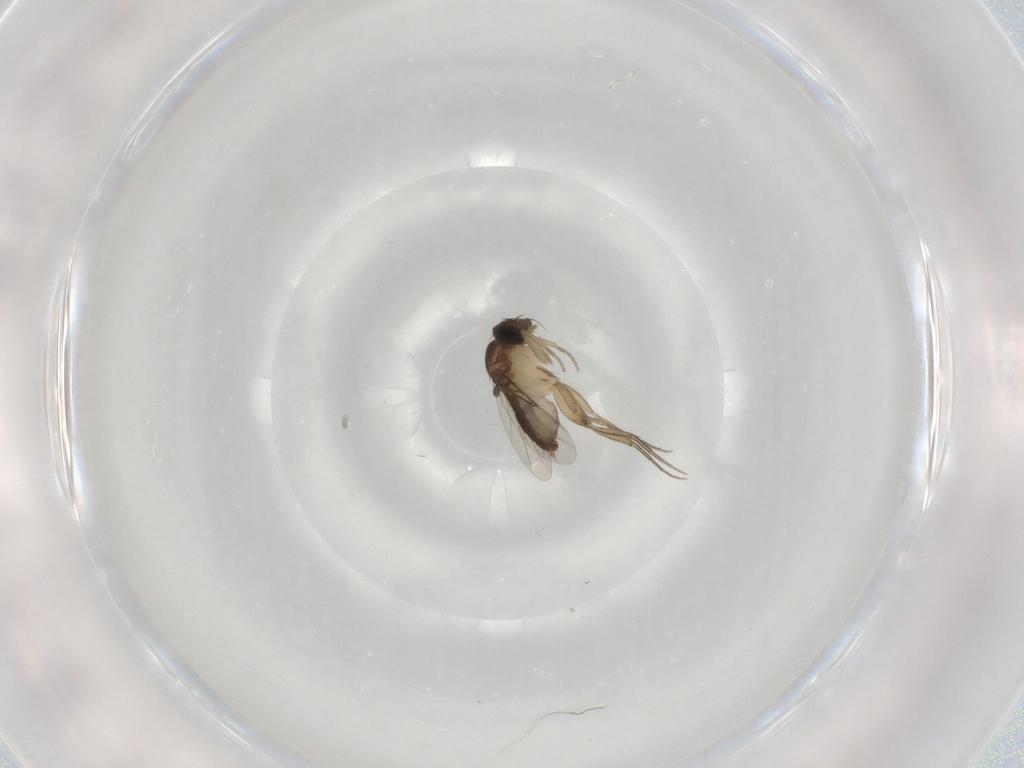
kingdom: Animalia
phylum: Arthropoda
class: Insecta
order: Diptera
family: Phoridae
